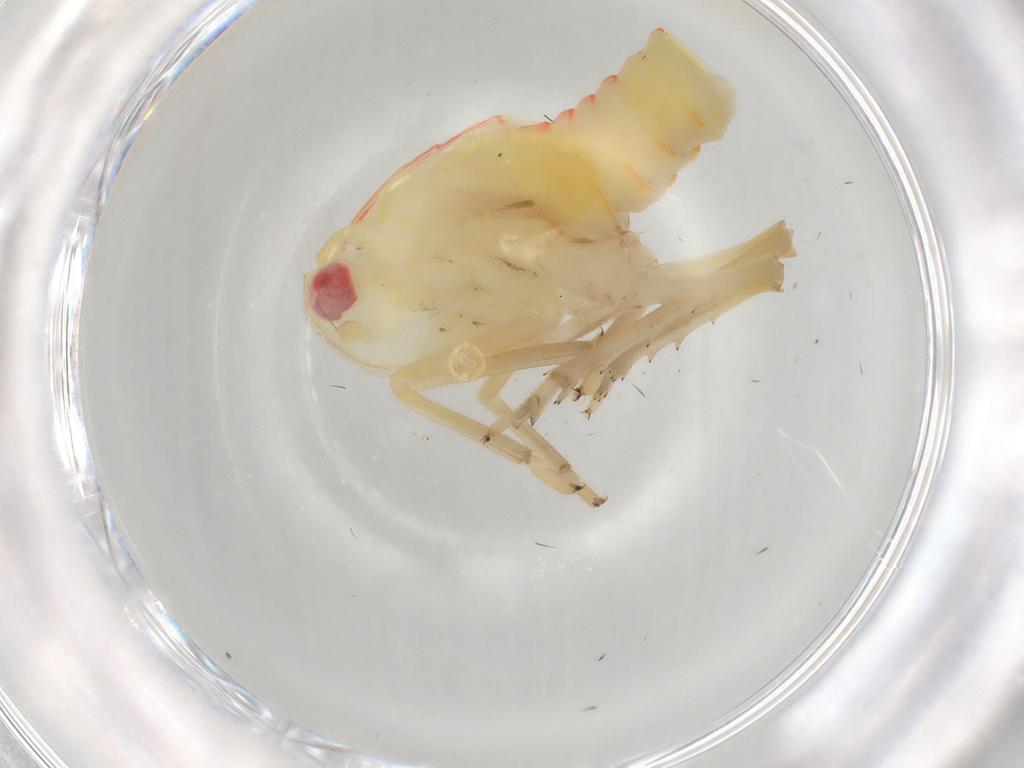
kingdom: Animalia
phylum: Arthropoda
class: Insecta
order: Hemiptera
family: Tropiduchidae
